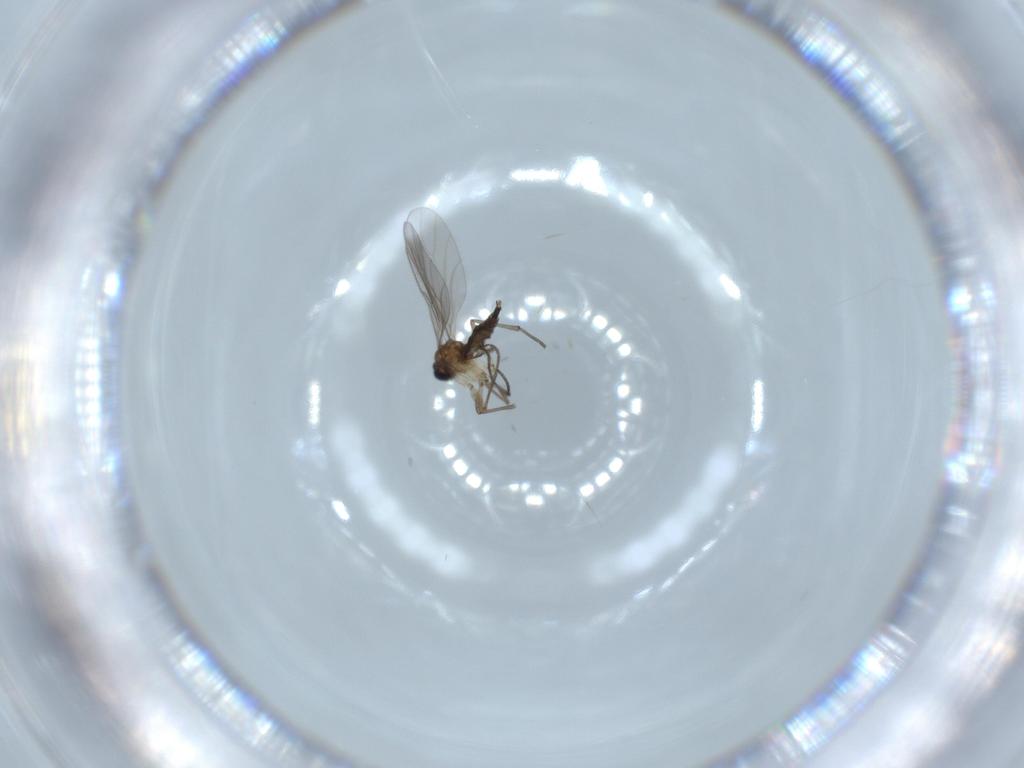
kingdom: Animalia
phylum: Arthropoda
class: Insecta
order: Diptera
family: Sciaridae
